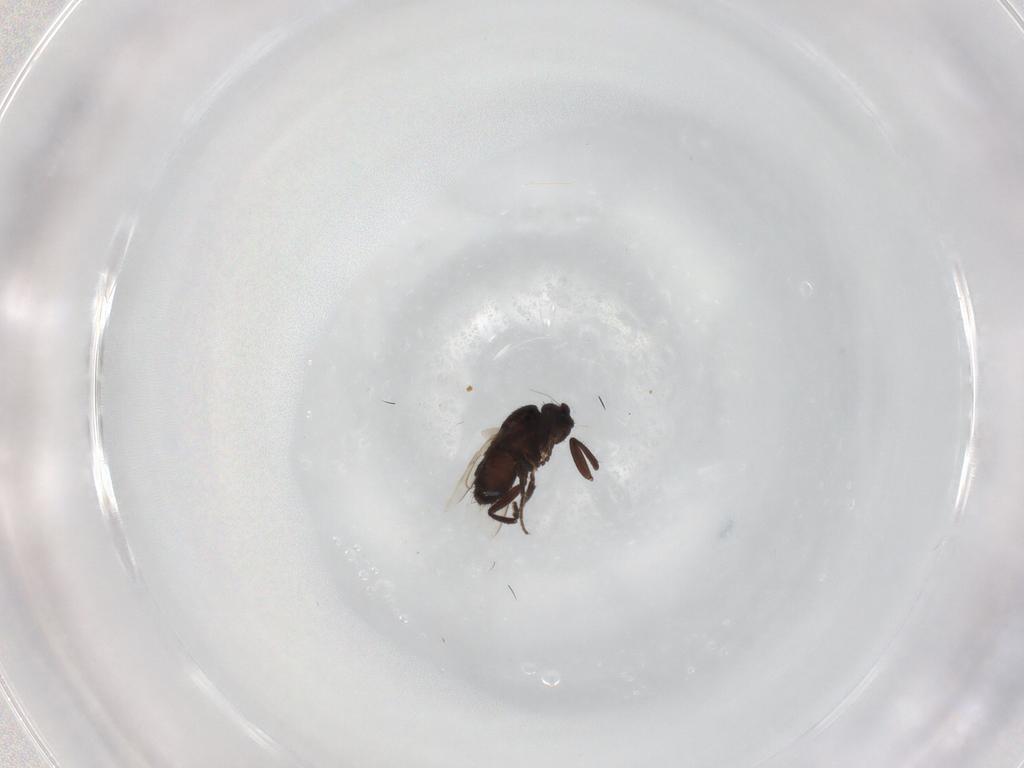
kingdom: Animalia
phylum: Arthropoda
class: Insecta
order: Diptera
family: Sphaeroceridae
